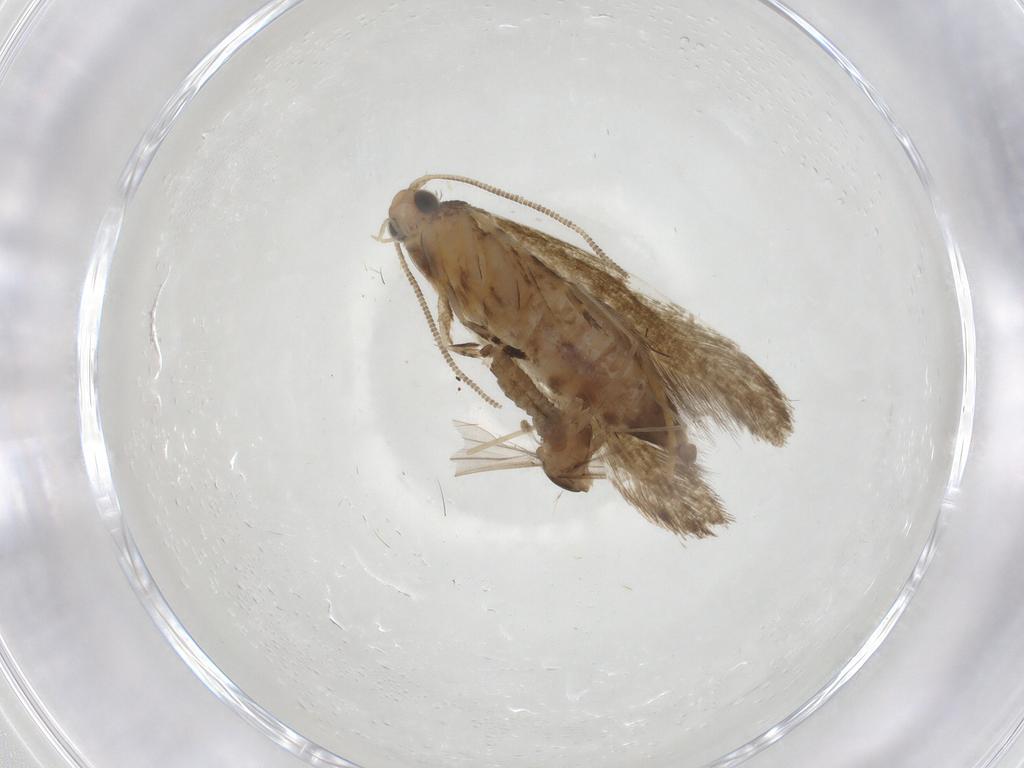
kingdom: Animalia
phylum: Arthropoda
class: Insecta
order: Lepidoptera
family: Meessiidae
